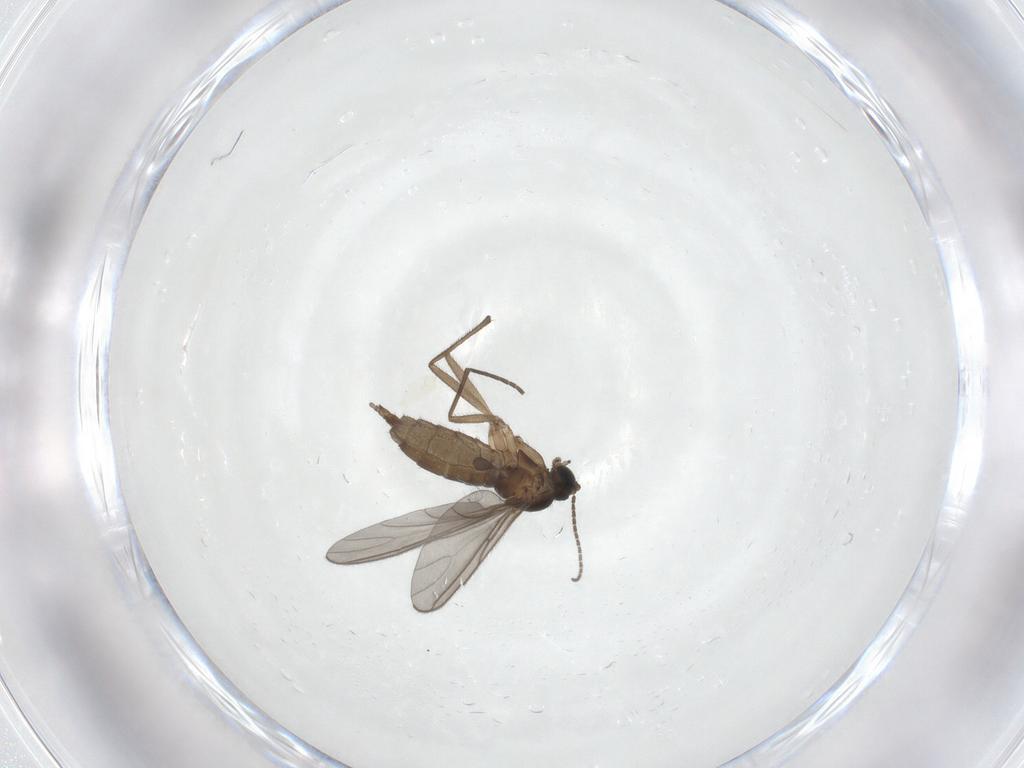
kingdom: Animalia
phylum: Arthropoda
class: Insecta
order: Diptera
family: Sciaridae
